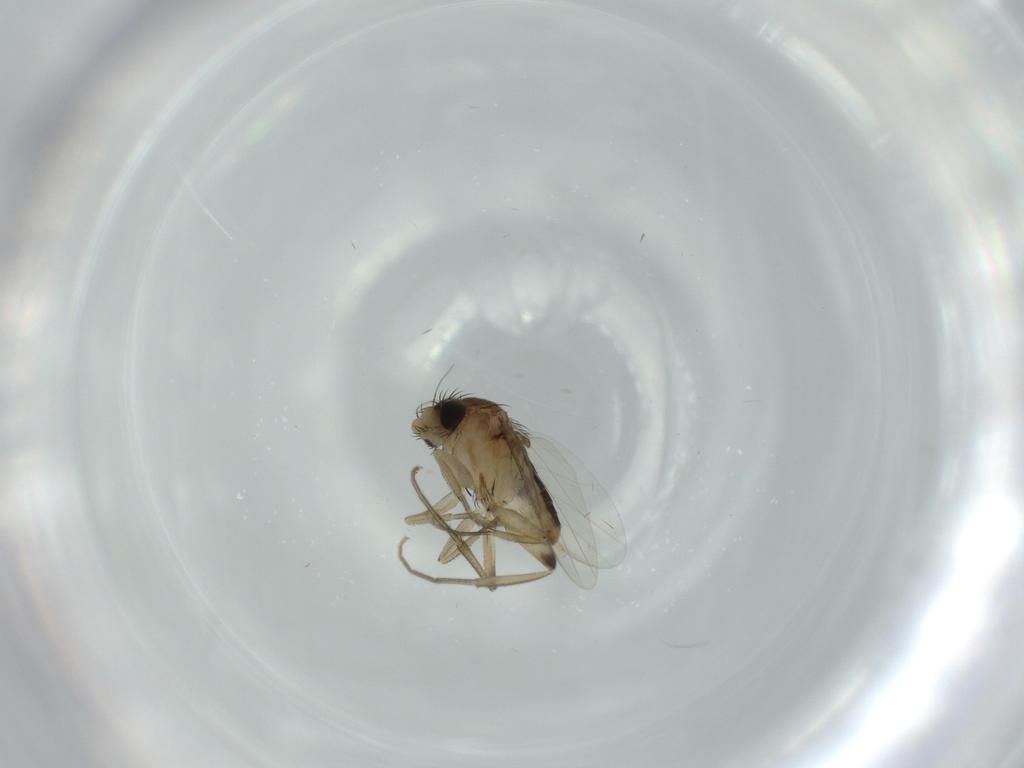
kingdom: Animalia
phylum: Arthropoda
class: Insecta
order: Diptera
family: Phoridae
